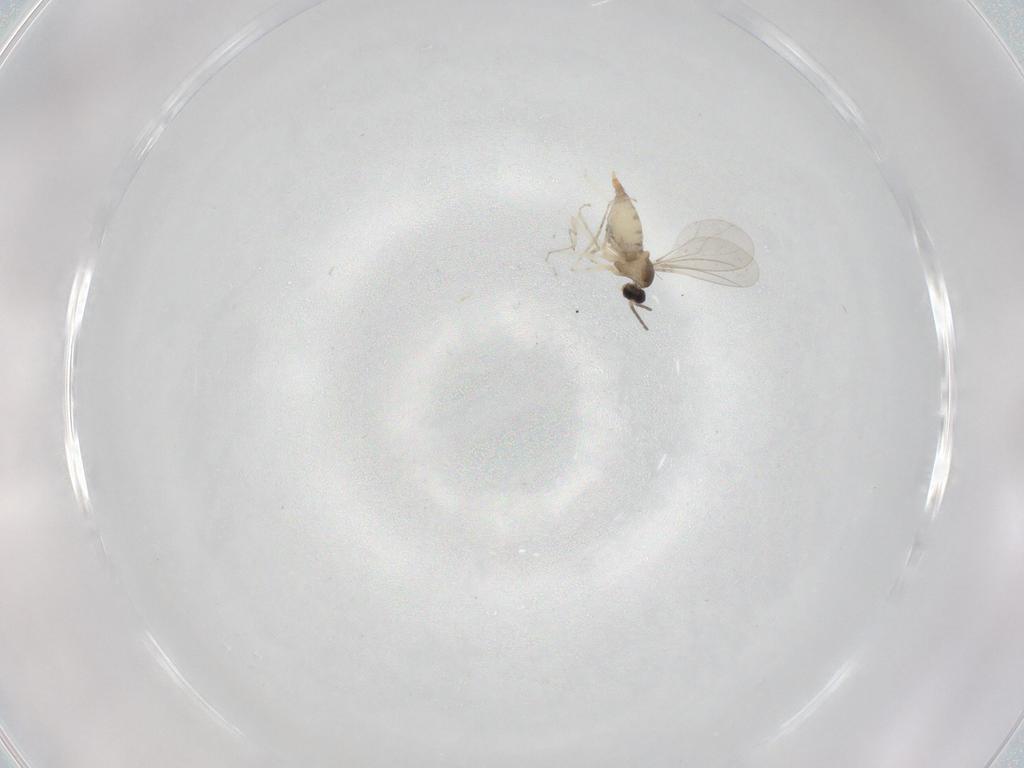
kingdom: Animalia
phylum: Arthropoda
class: Insecta
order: Diptera
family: Cecidomyiidae
